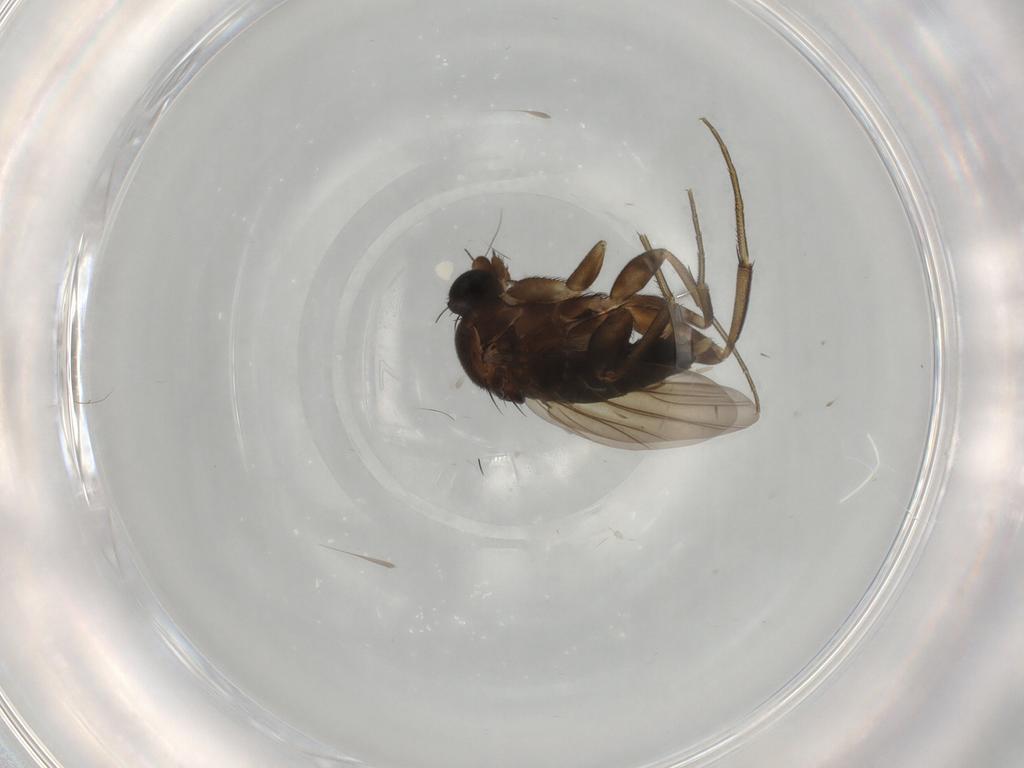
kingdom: Animalia
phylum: Arthropoda
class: Insecta
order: Diptera
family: Phoridae
